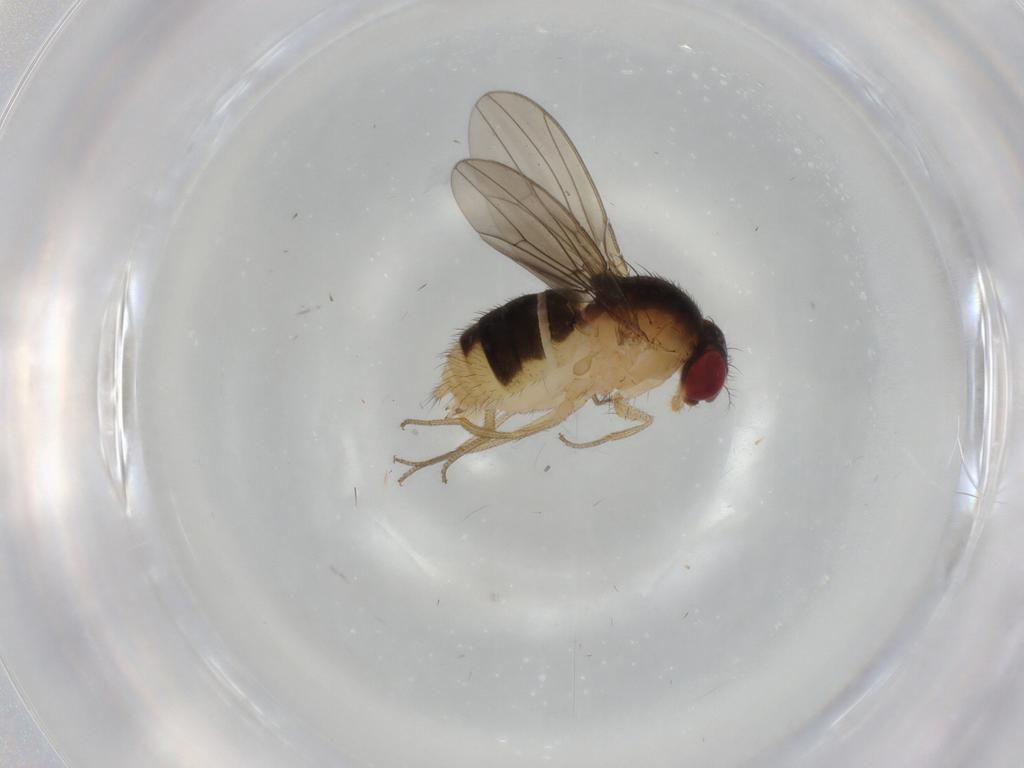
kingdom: Animalia
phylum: Arthropoda
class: Insecta
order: Diptera
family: Drosophilidae
